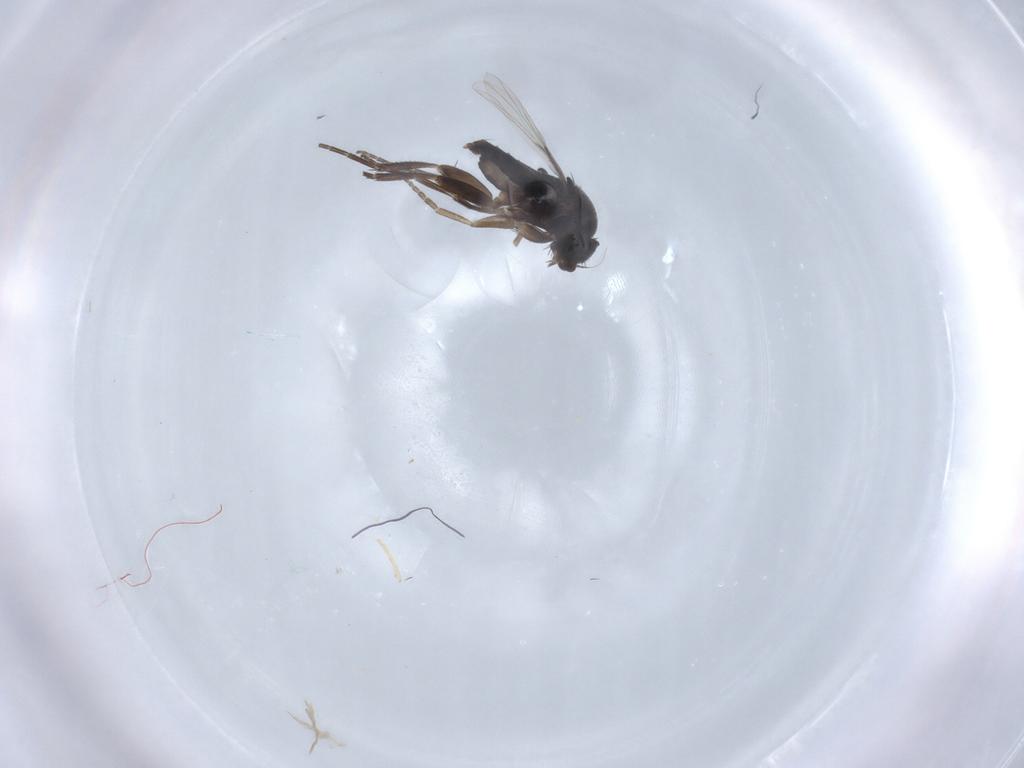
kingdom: Animalia
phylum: Arthropoda
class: Insecta
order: Diptera
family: Phoridae
